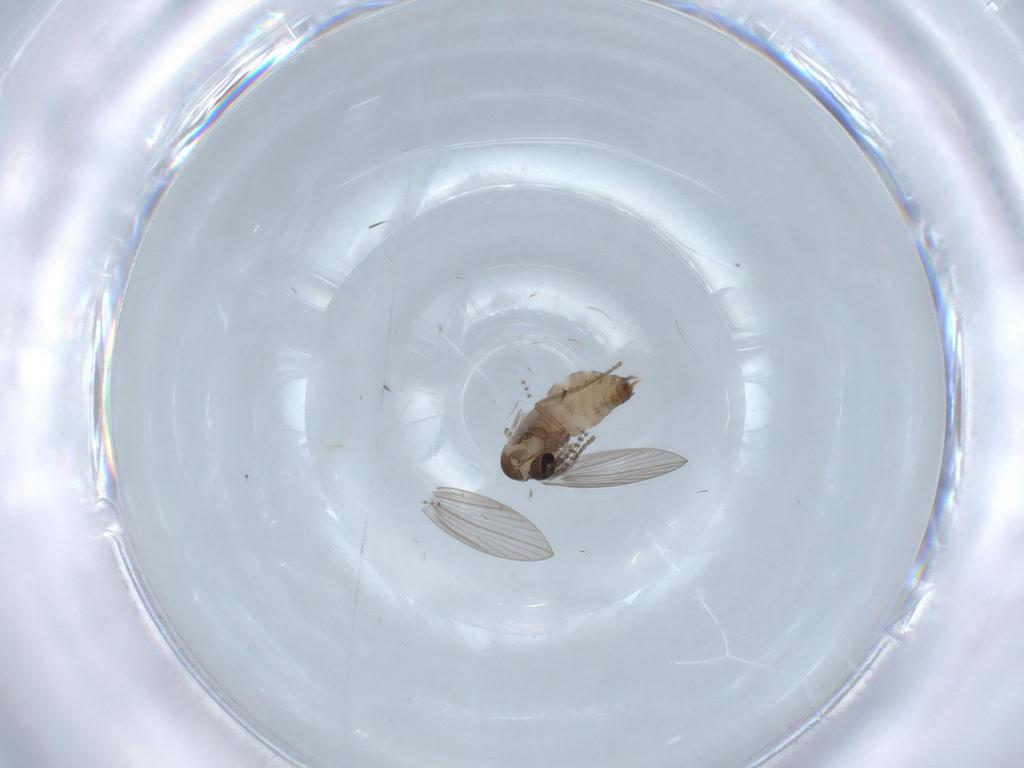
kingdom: Animalia
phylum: Arthropoda
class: Insecta
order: Diptera
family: Psychodidae
